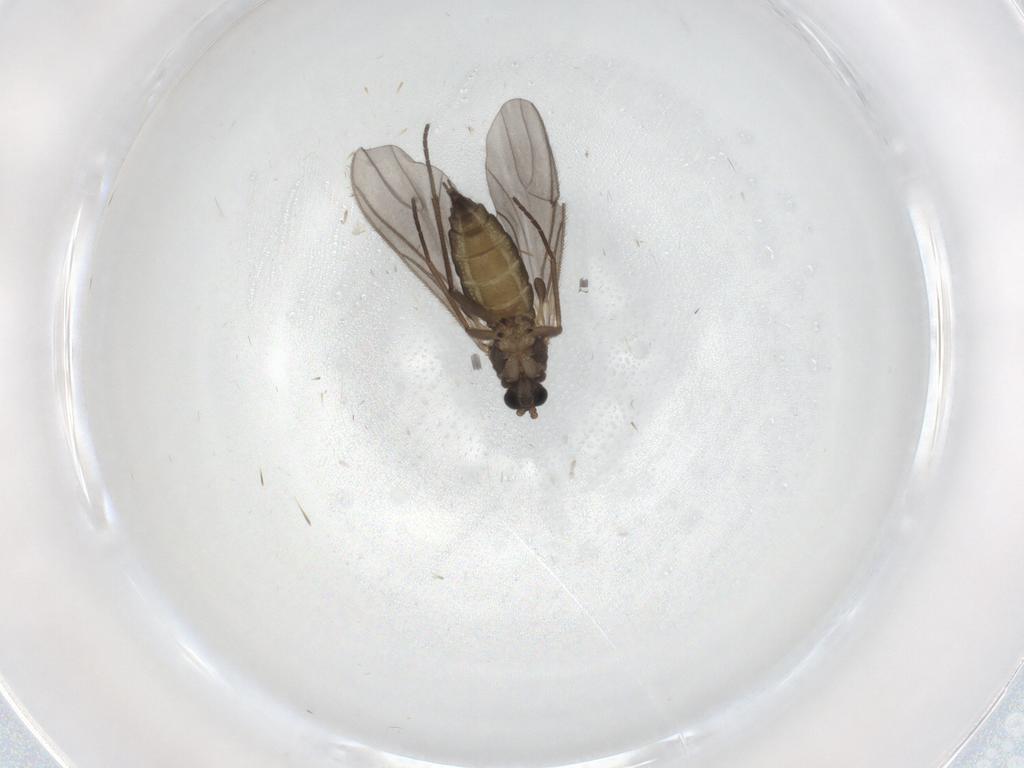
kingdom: Animalia
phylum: Arthropoda
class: Insecta
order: Diptera
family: Sciaridae
